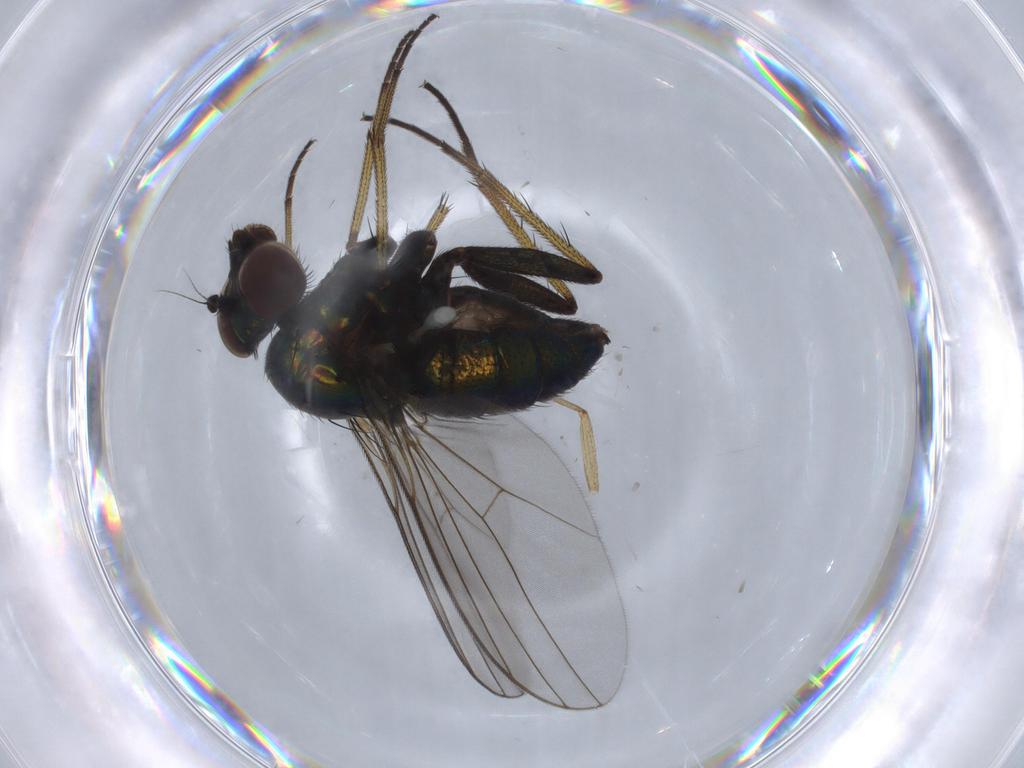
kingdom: Animalia
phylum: Arthropoda
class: Insecta
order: Diptera
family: Dolichopodidae
